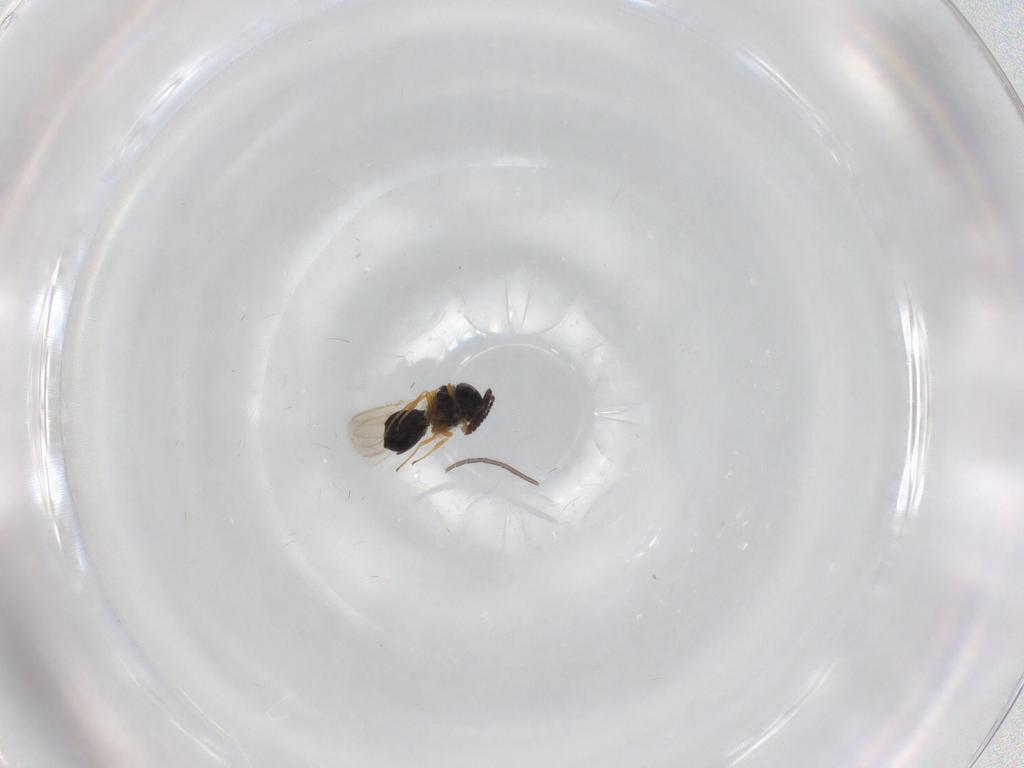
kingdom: Animalia
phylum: Arthropoda
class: Insecta
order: Hymenoptera
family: Scelionidae
